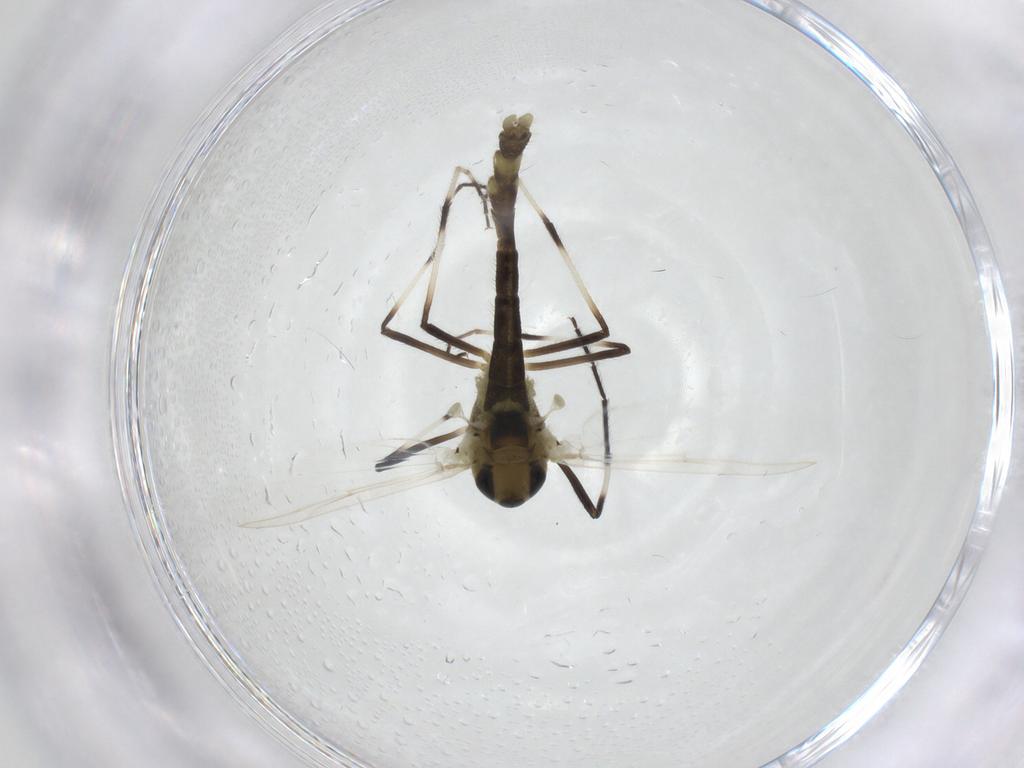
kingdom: Animalia
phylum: Arthropoda
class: Insecta
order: Diptera
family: Chironomidae
